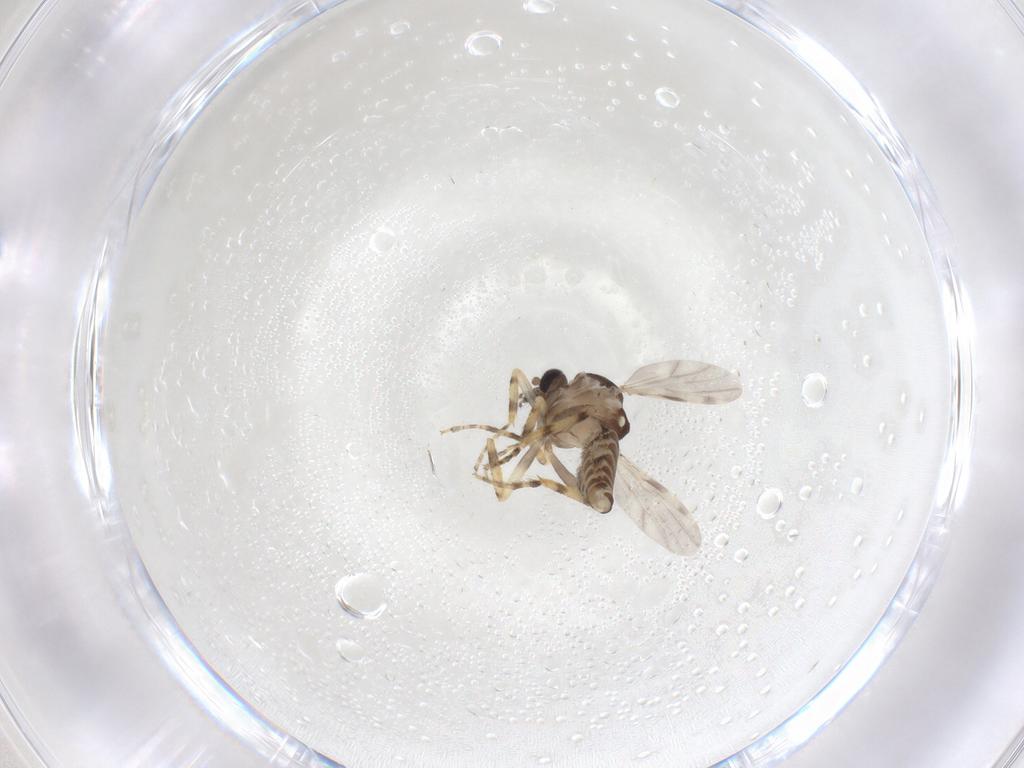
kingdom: Animalia
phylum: Arthropoda
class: Insecta
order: Diptera
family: Ceratopogonidae
